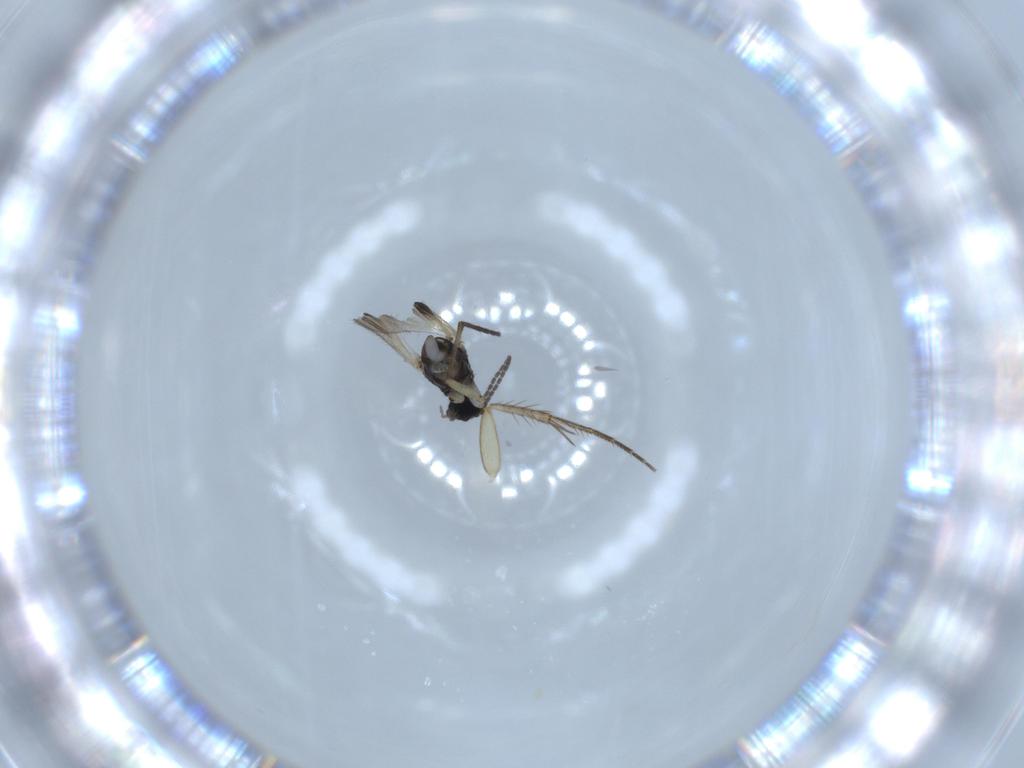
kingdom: Animalia
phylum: Arthropoda
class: Insecta
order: Diptera
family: Sciaridae
